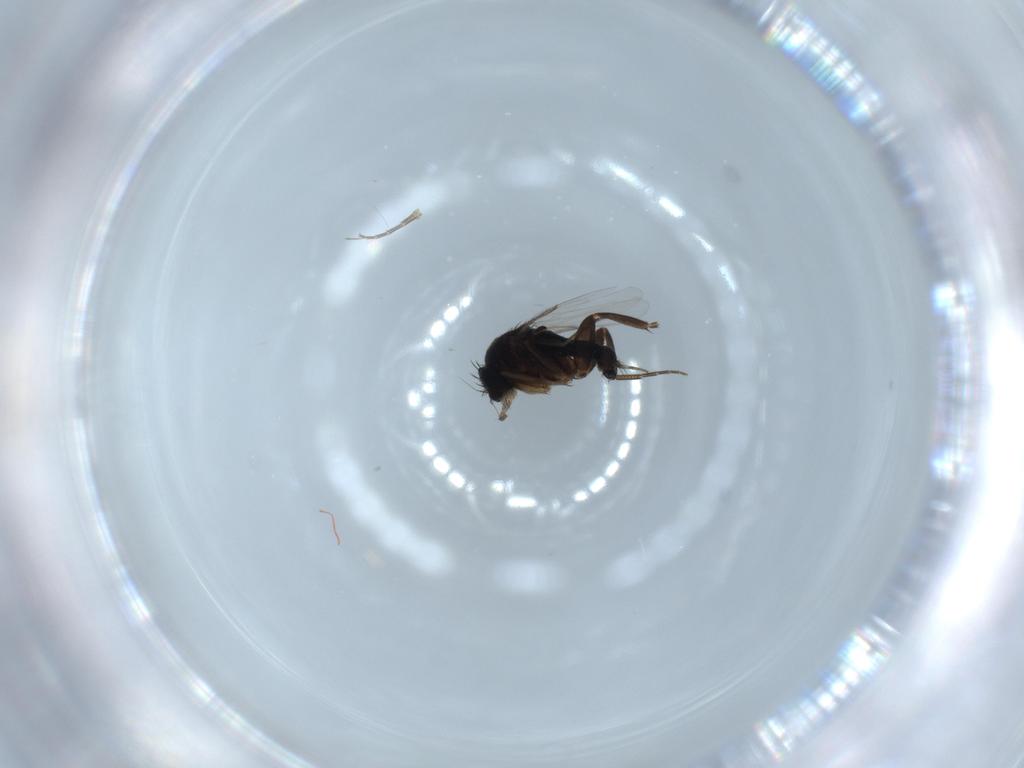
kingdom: Animalia
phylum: Arthropoda
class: Insecta
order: Diptera
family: Phoridae
